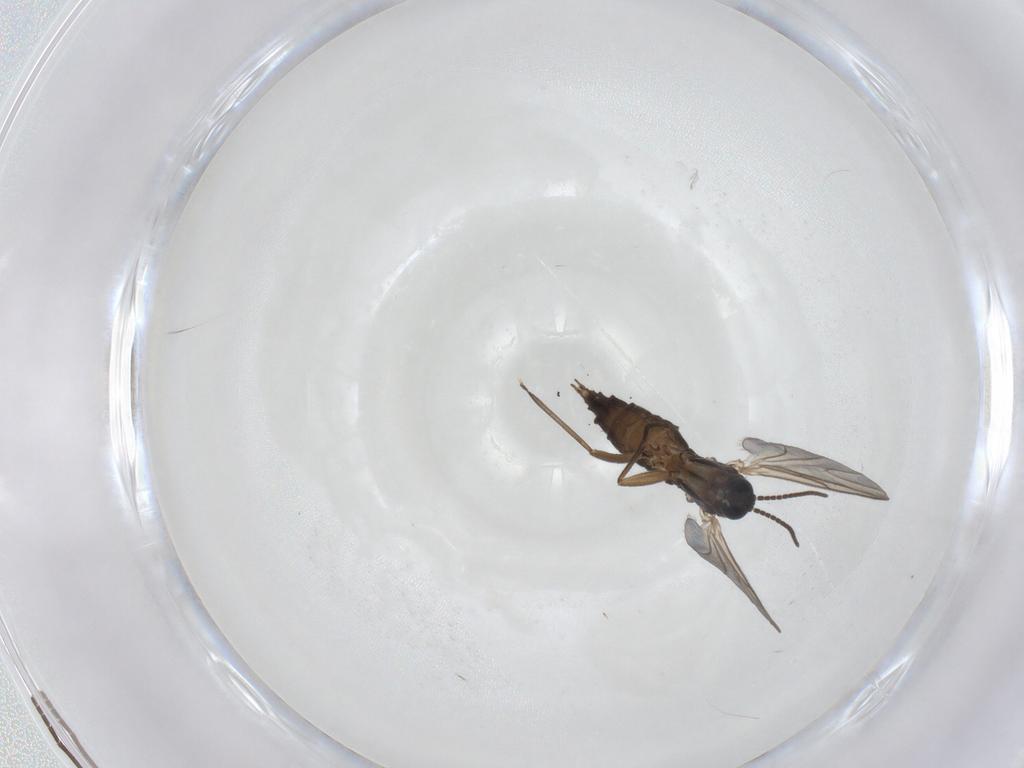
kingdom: Animalia
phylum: Arthropoda
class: Insecta
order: Diptera
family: Sciaridae
